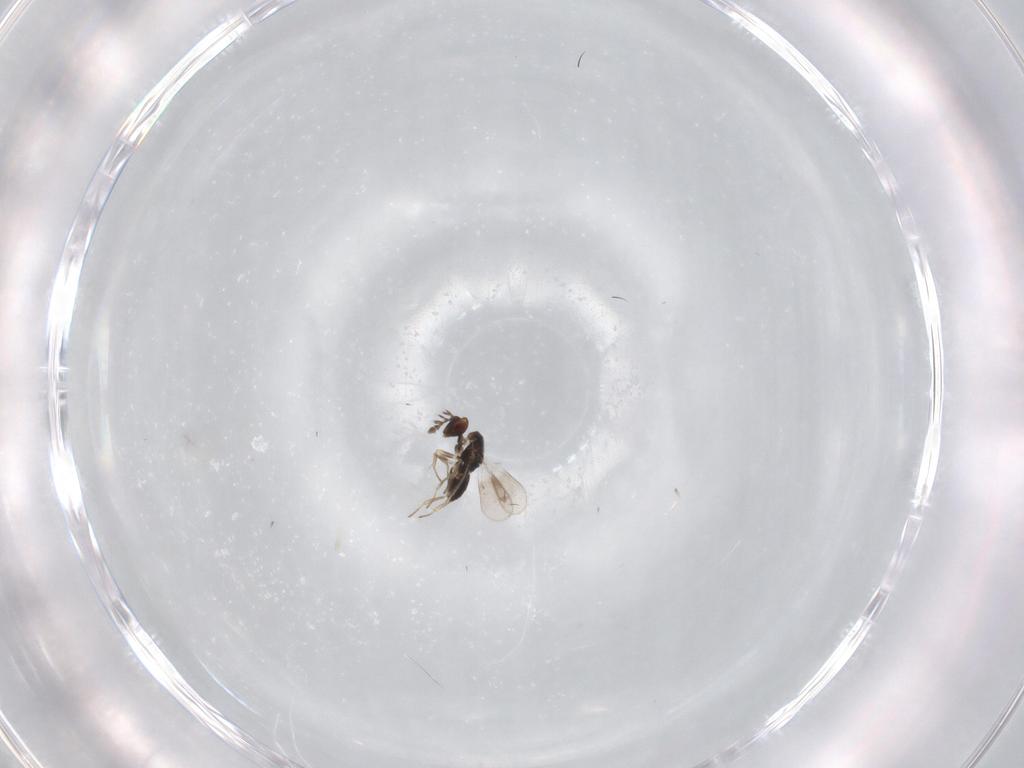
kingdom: Animalia
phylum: Arthropoda
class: Insecta
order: Hymenoptera
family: Eulophidae
